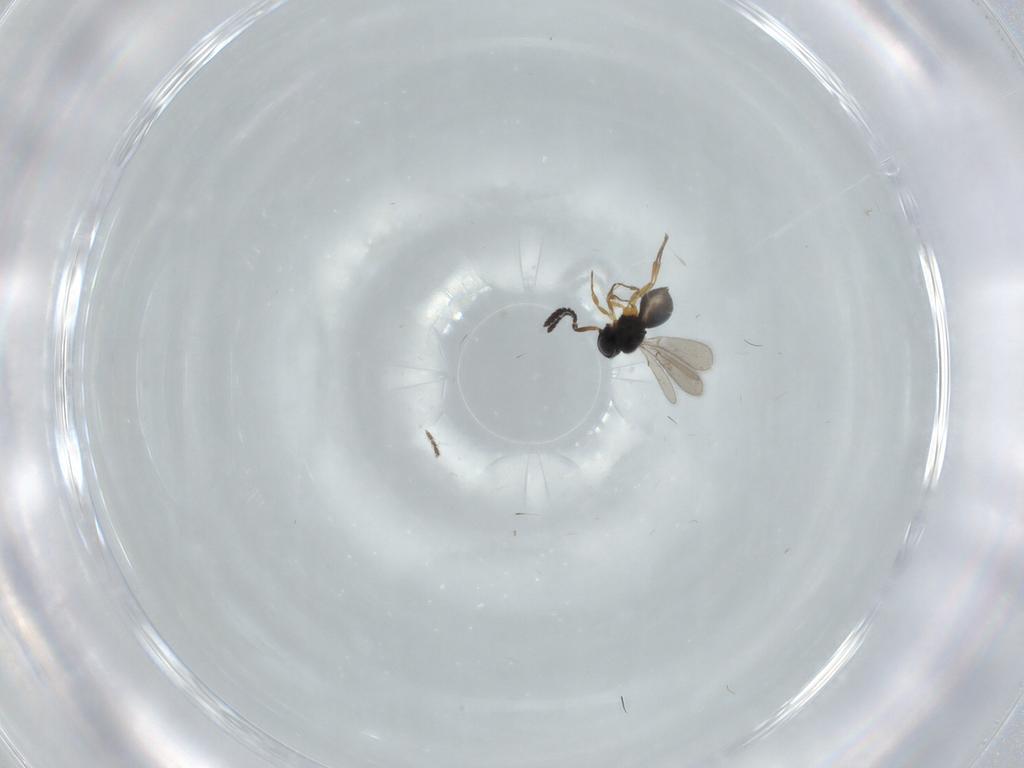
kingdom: Animalia
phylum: Arthropoda
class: Insecta
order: Hymenoptera
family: Scelionidae
